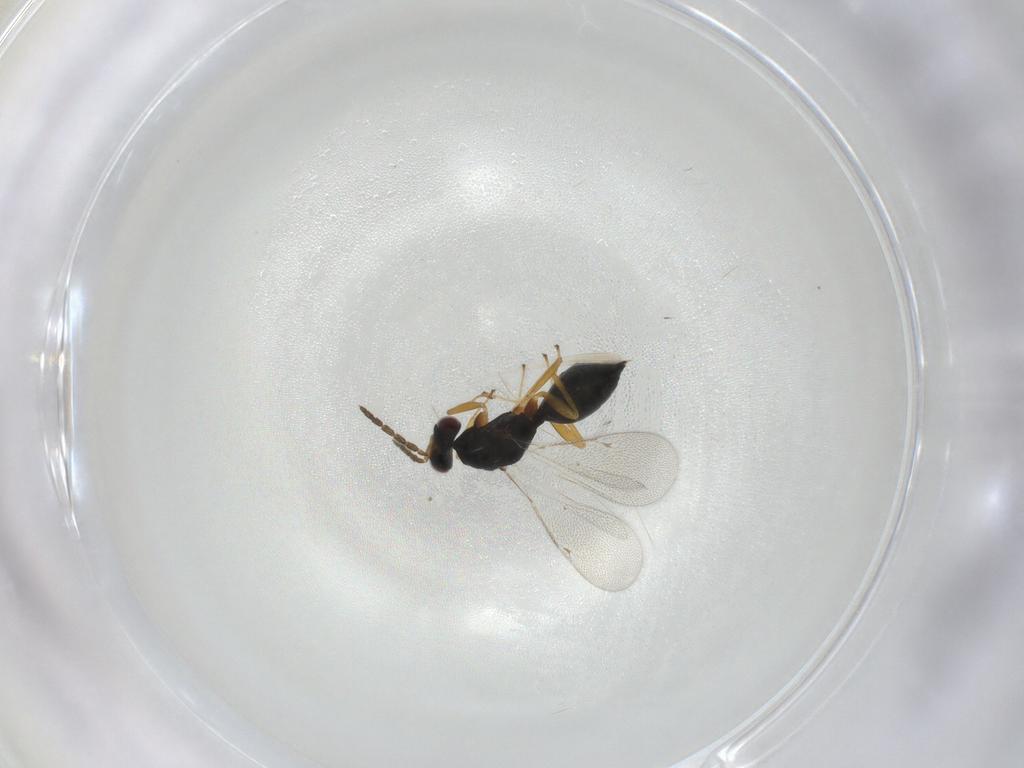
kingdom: Animalia
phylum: Arthropoda
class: Insecta
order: Hymenoptera
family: Eulophidae
